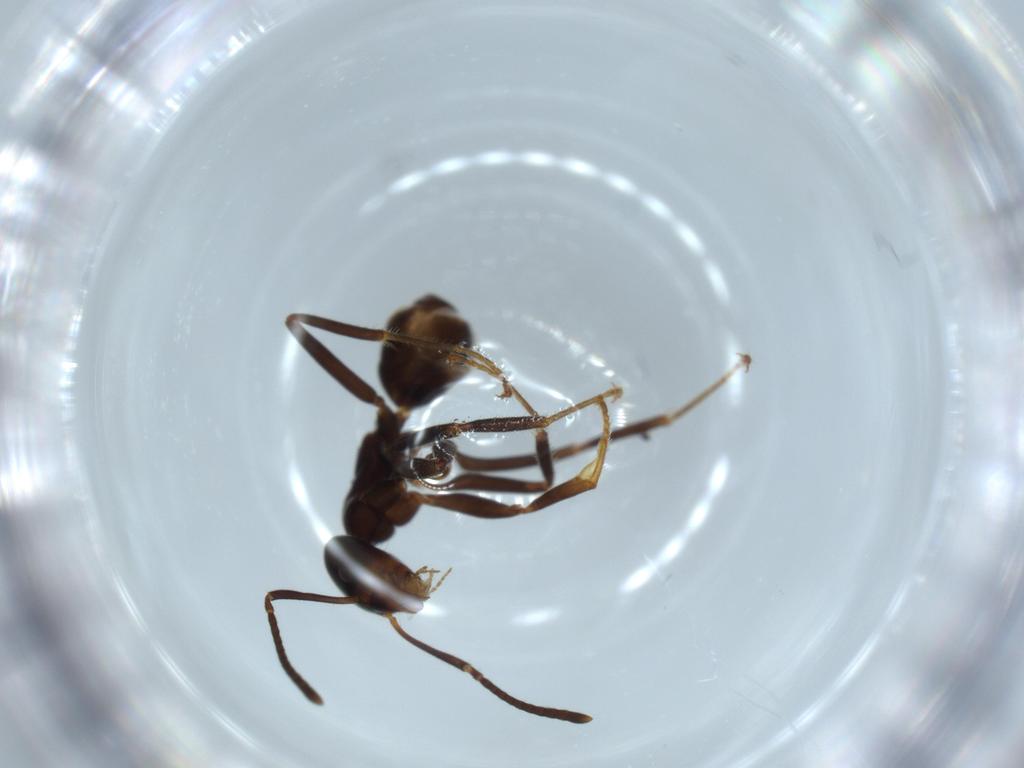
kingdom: Animalia
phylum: Arthropoda
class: Insecta
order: Hymenoptera
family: Formicidae
